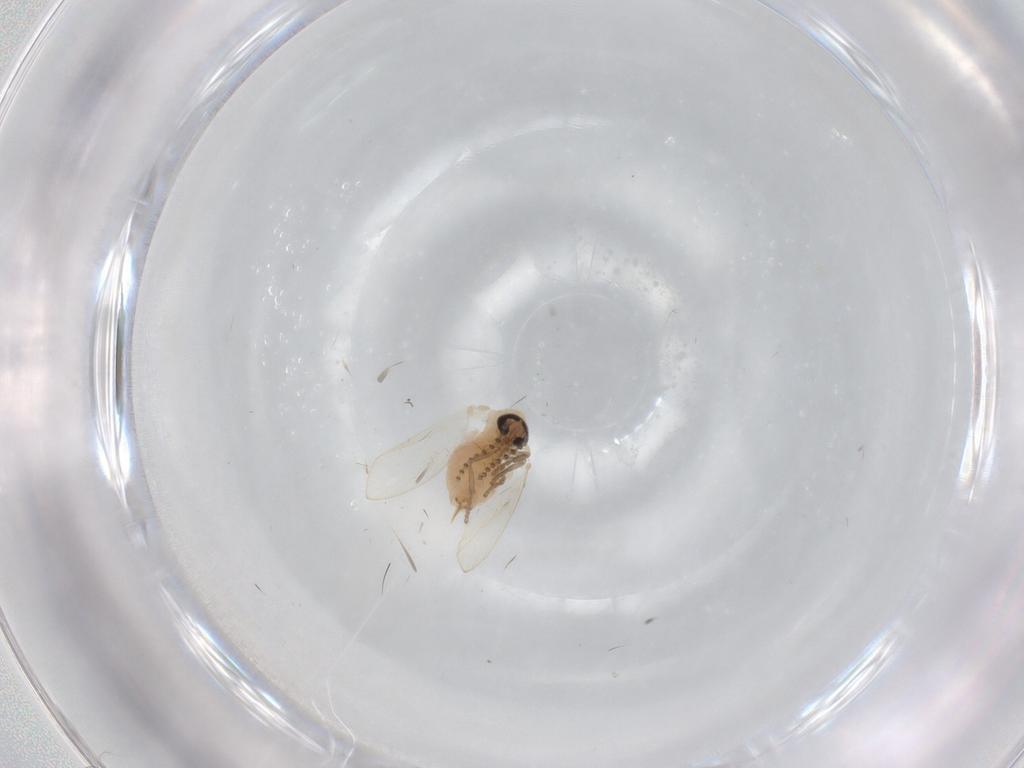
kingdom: Animalia
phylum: Arthropoda
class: Insecta
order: Diptera
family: Psychodidae
